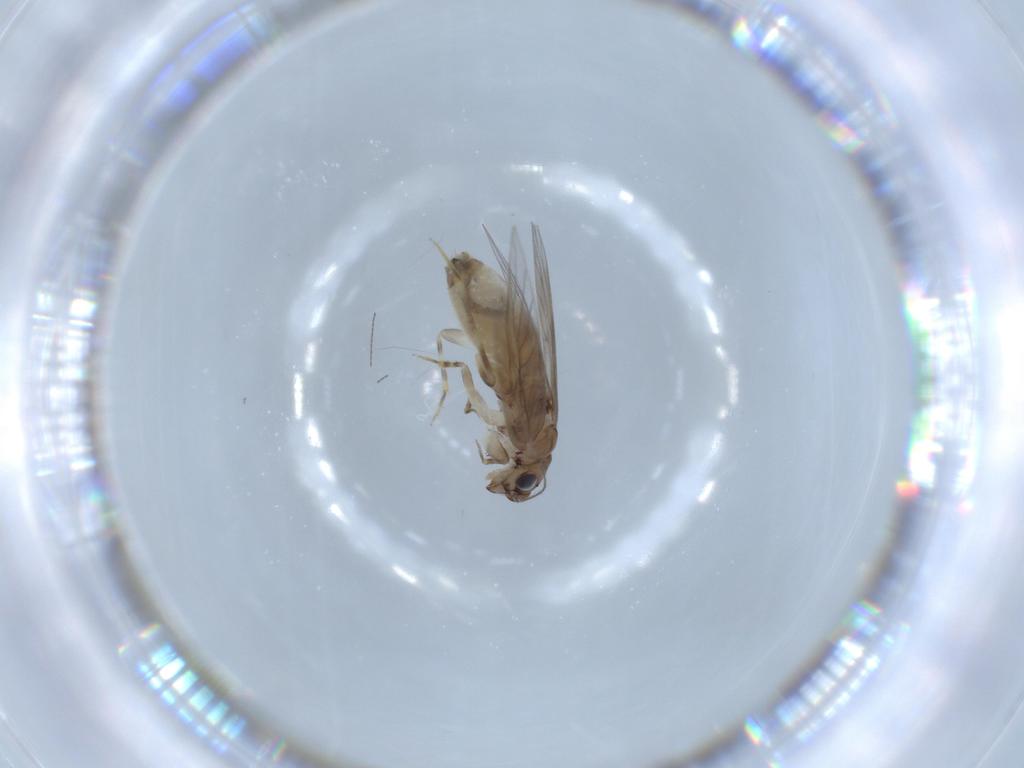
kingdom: Animalia
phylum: Arthropoda
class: Insecta
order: Psocodea
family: Lepidopsocidae
